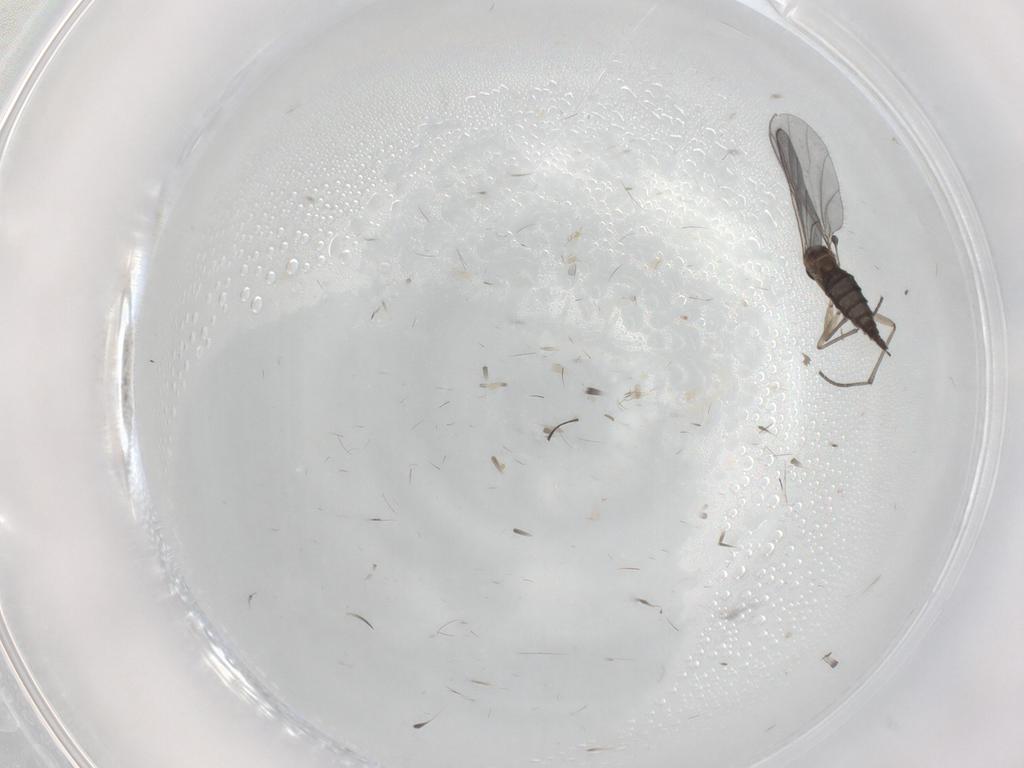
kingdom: Animalia
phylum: Arthropoda
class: Insecta
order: Diptera
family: Sciaridae
